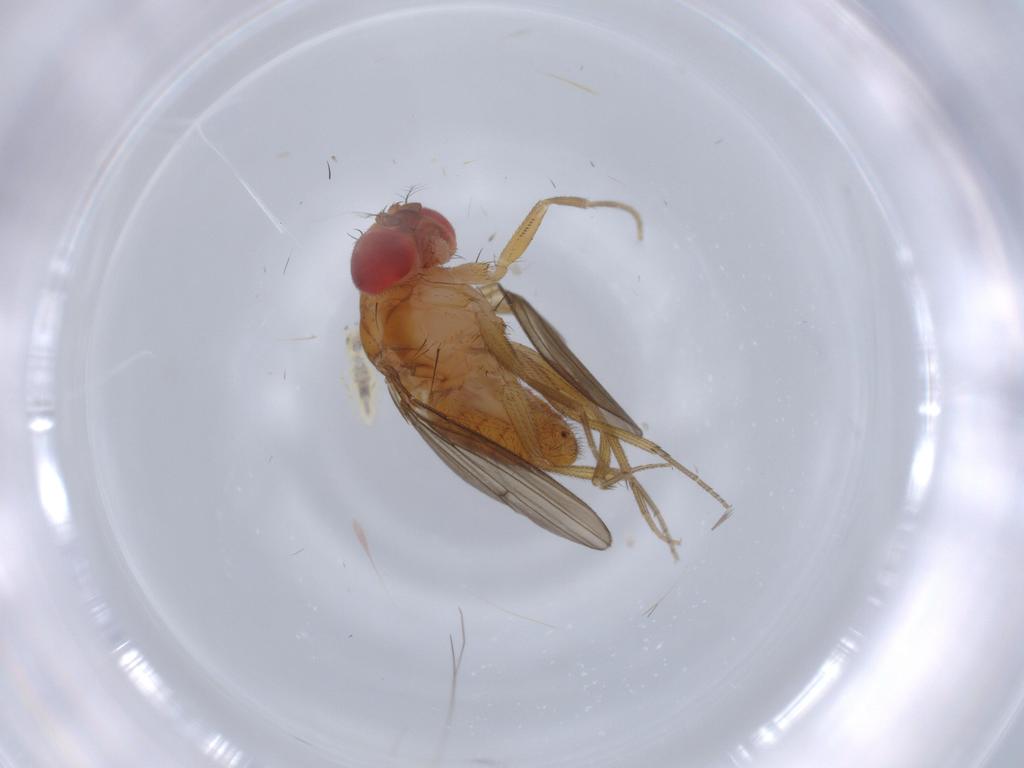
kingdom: Animalia
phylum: Arthropoda
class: Insecta
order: Diptera
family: Drosophilidae
